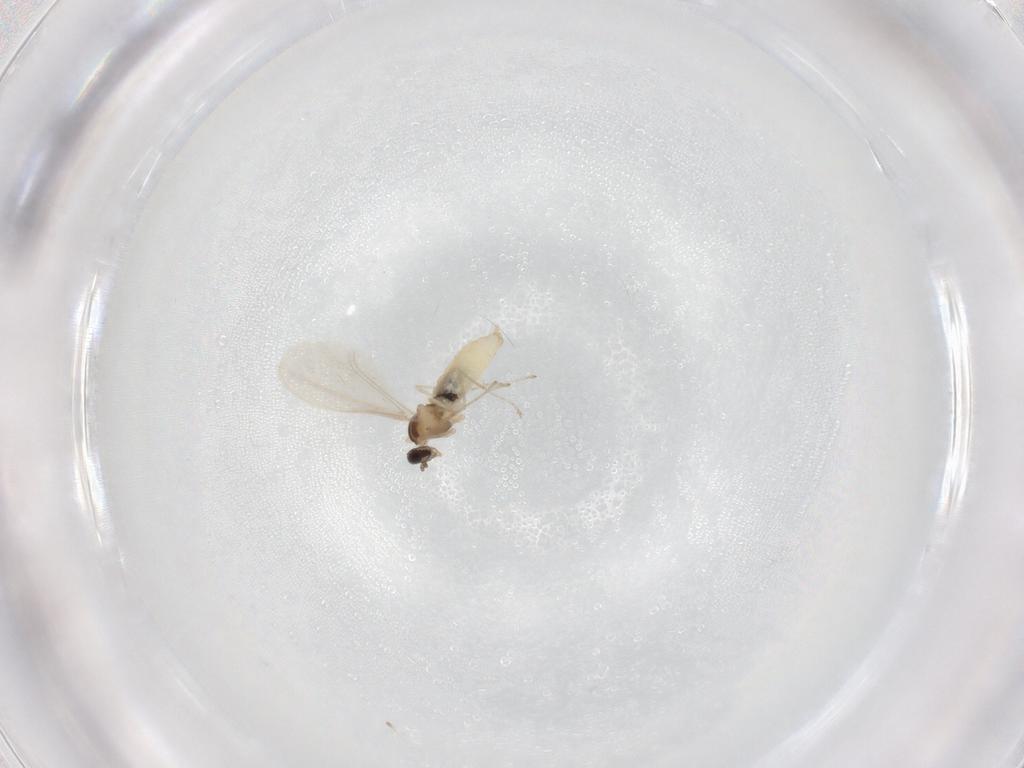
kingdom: Animalia
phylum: Arthropoda
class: Insecta
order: Diptera
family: Cecidomyiidae
